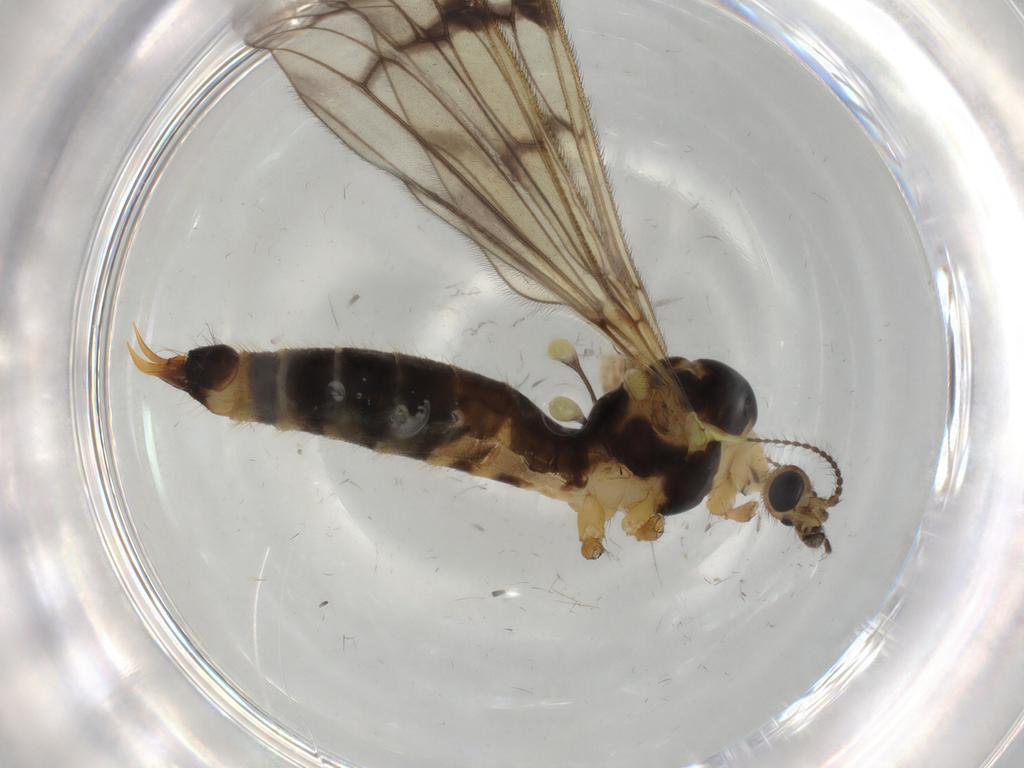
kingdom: Animalia
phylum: Arthropoda
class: Insecta
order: Diptera
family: Limoniidae
